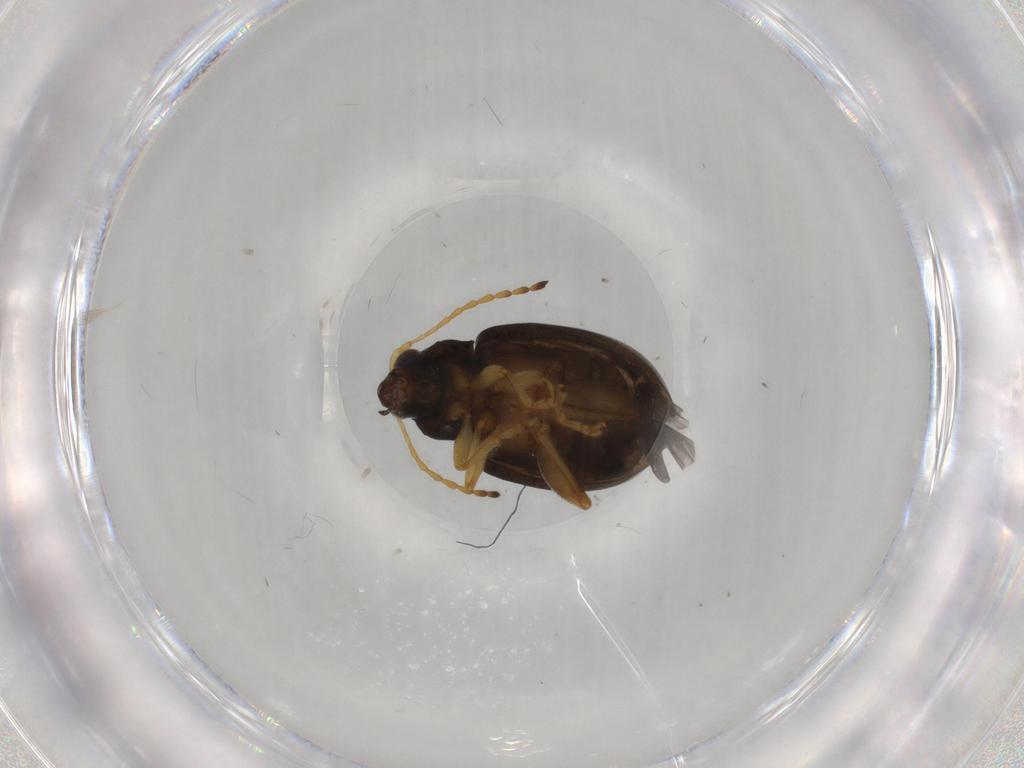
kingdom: Animalia
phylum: Arthropoda
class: Insecta
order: Coleoptera
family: Chrysomelidae
